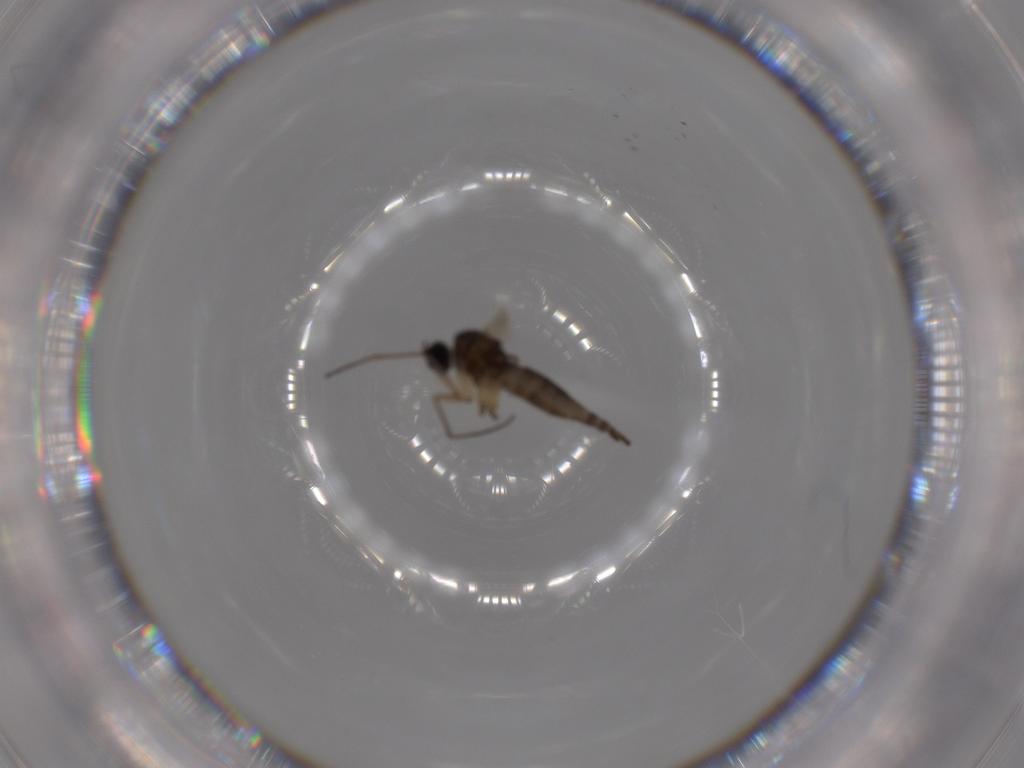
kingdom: Animalia
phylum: Arthropoda
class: Insecta
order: Diptera
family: Sciaridae
